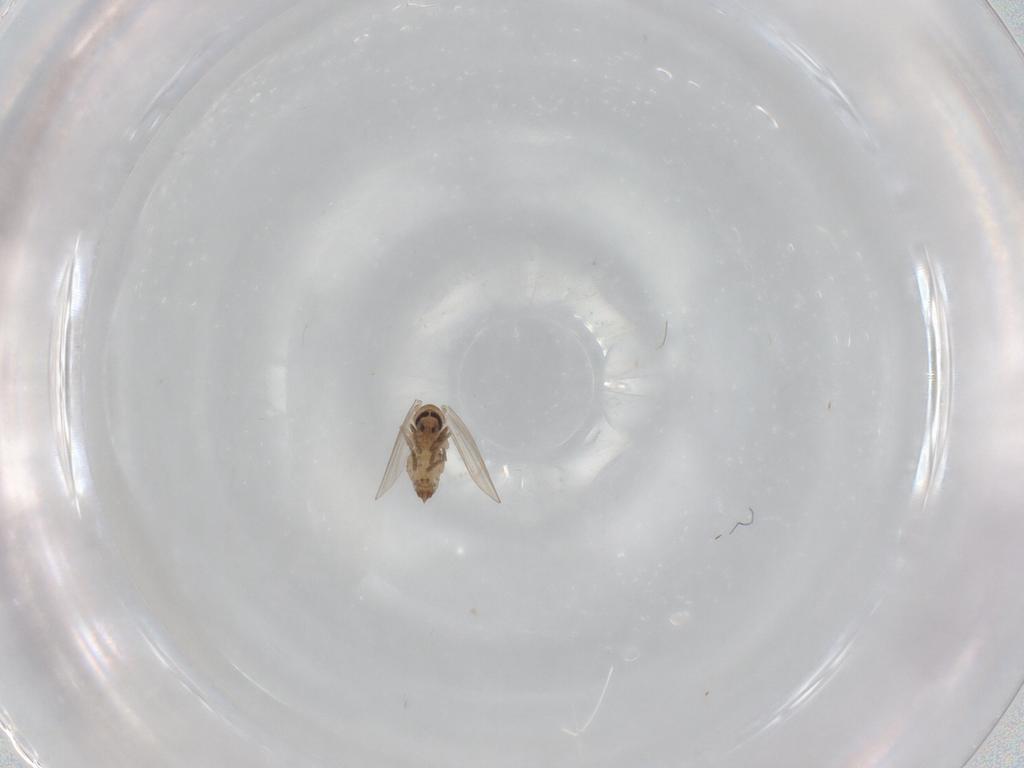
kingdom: Animalia
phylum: Arthropoda
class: Insecta
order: Diptera
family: Psychodidae
